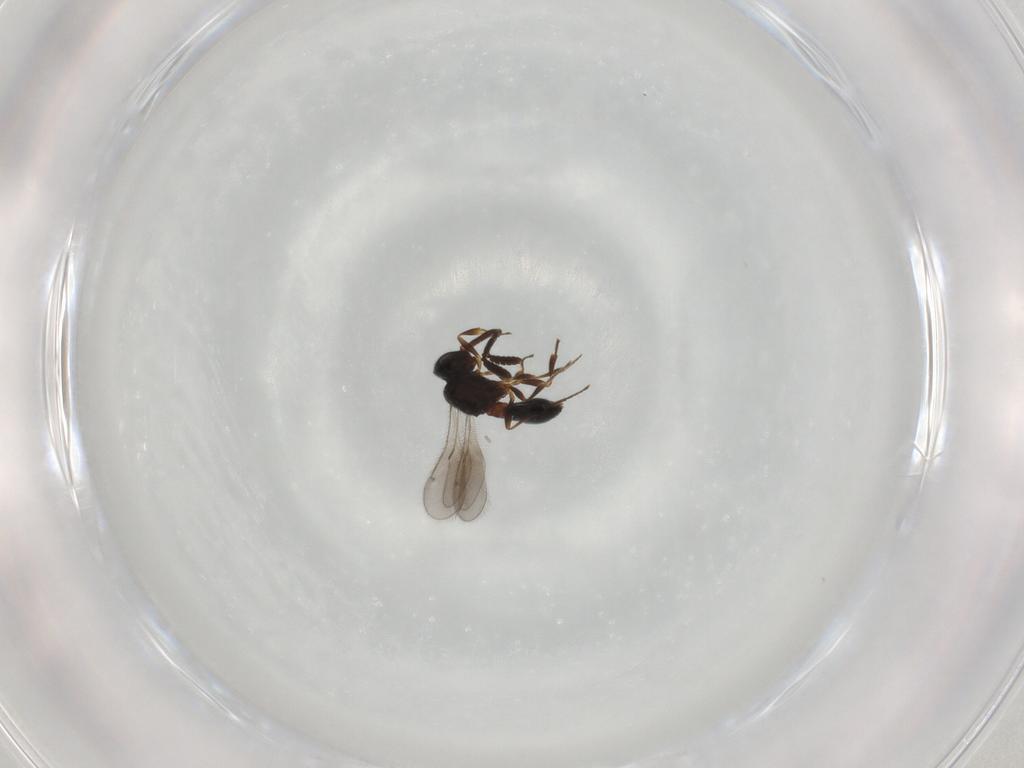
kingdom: Animalia
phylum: Arthropoda
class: Insecta
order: Hymenoptera
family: Scelionidae
